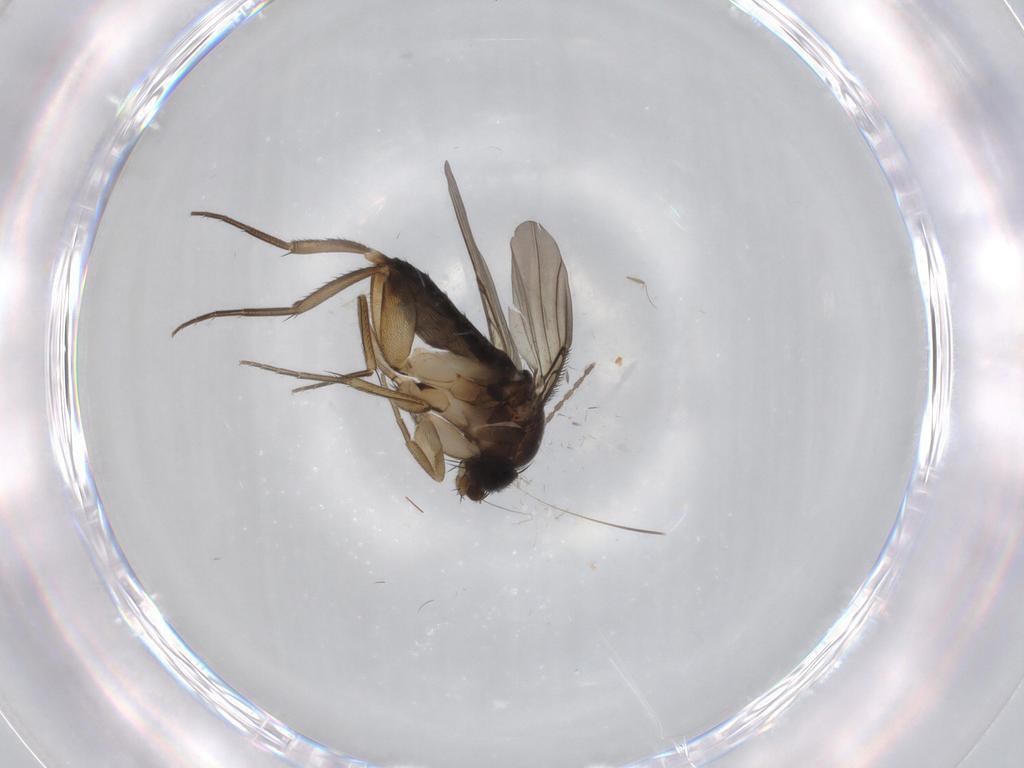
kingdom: Animalia
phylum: Arthropoda
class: Insecta
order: Diptera
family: Phoridae
